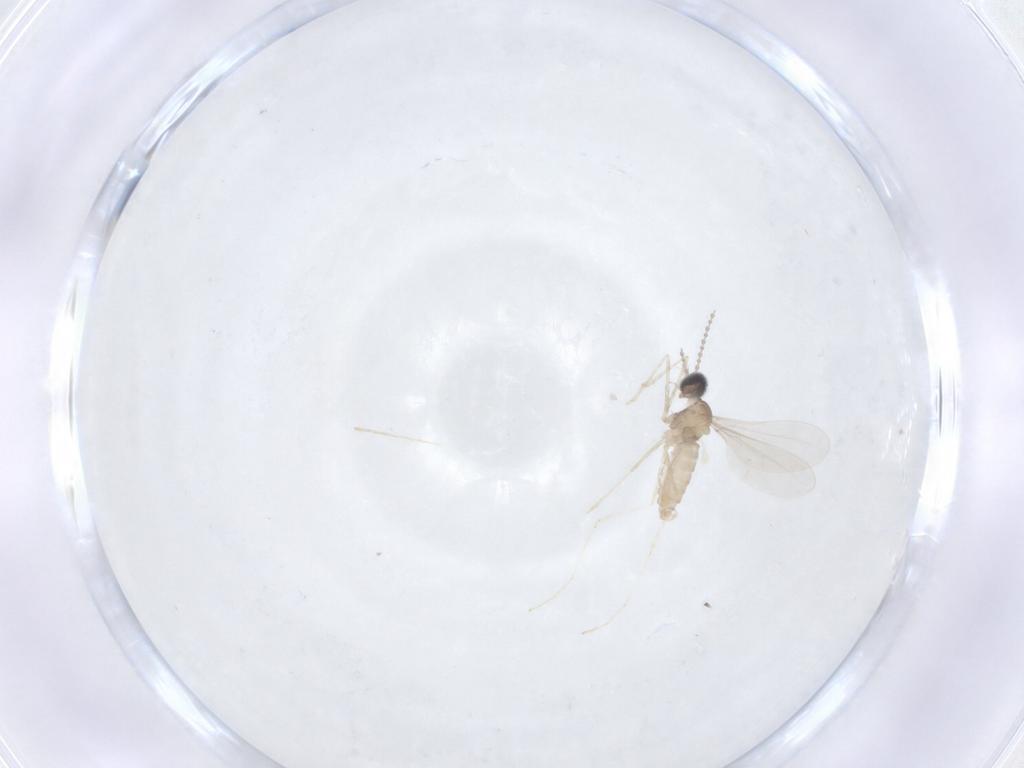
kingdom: Animalia
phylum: Arthropoda
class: Insecta
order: Diptera
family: Cecidomyiidae
